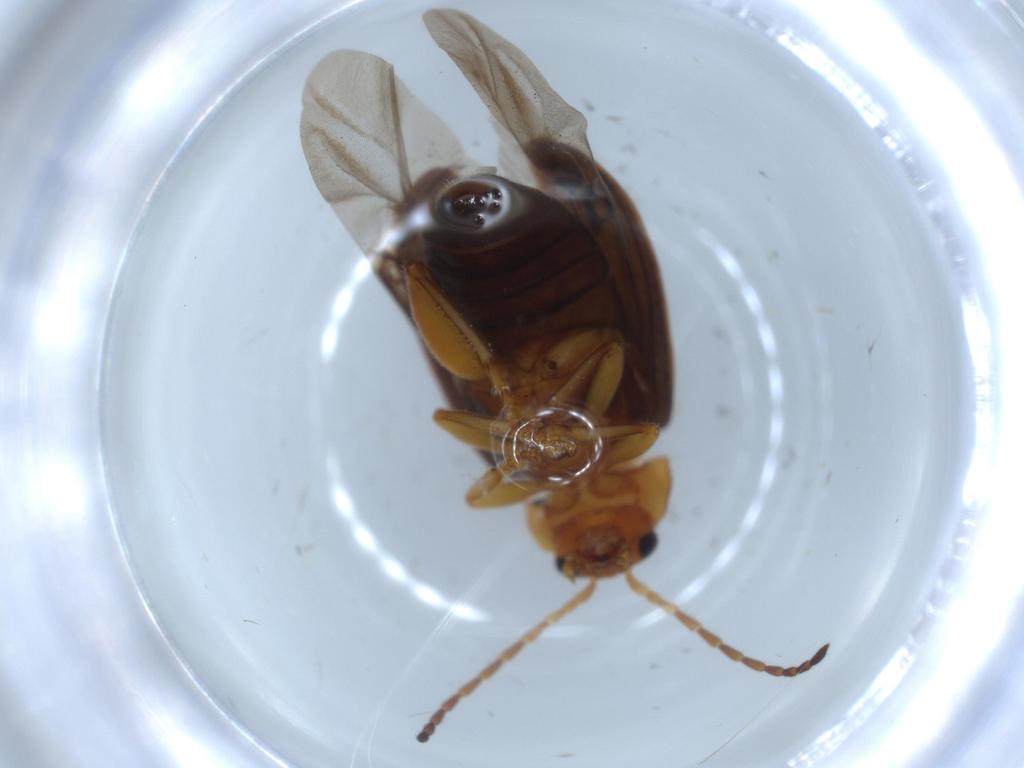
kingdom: Animalia
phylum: Arthropoda
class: Insecta
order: Coleoptera
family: Chrysomelidae
